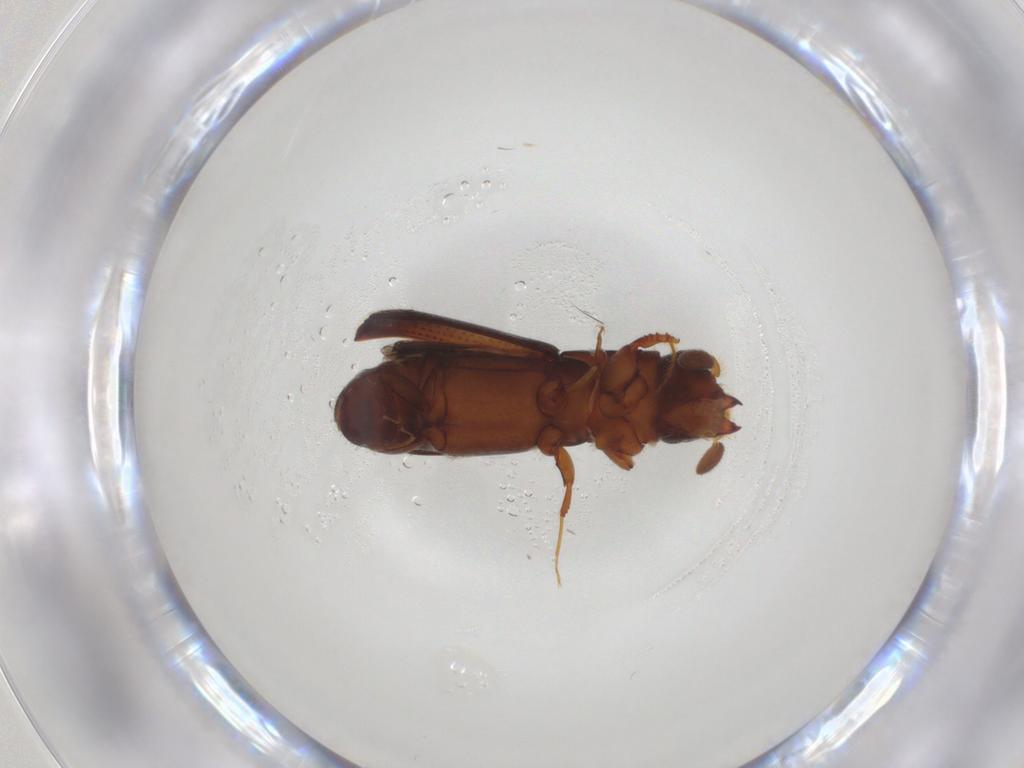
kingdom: Animalia
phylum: Arthropoda
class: Insecta
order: Coleoptera
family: Curculionidae
